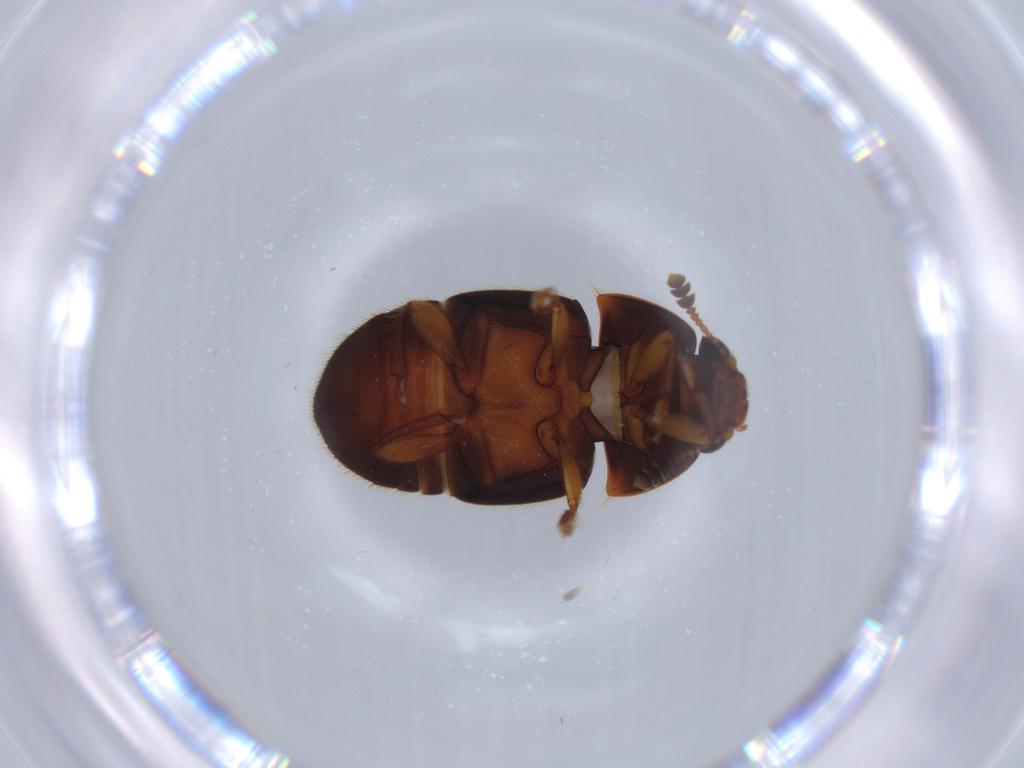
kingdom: Animalia
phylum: Arthropoda
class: Insecta
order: Coleoptera
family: Nitidulidae
